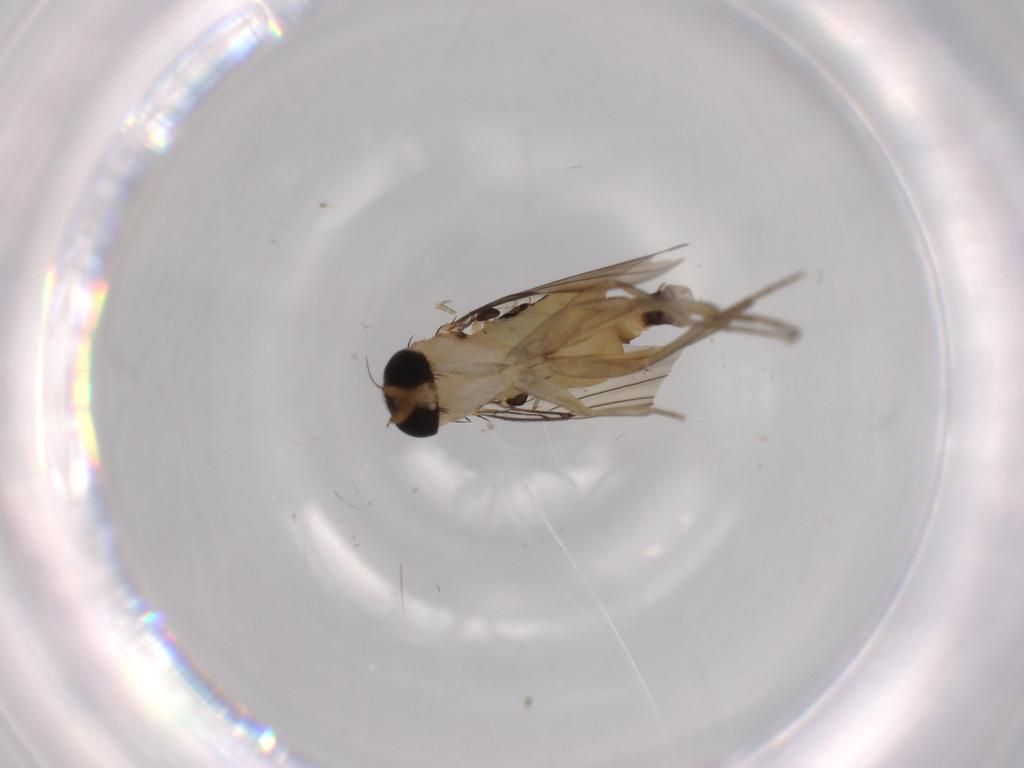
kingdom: Animalia
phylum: Arthropoda
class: Insecta
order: Diptera
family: Phoridae
